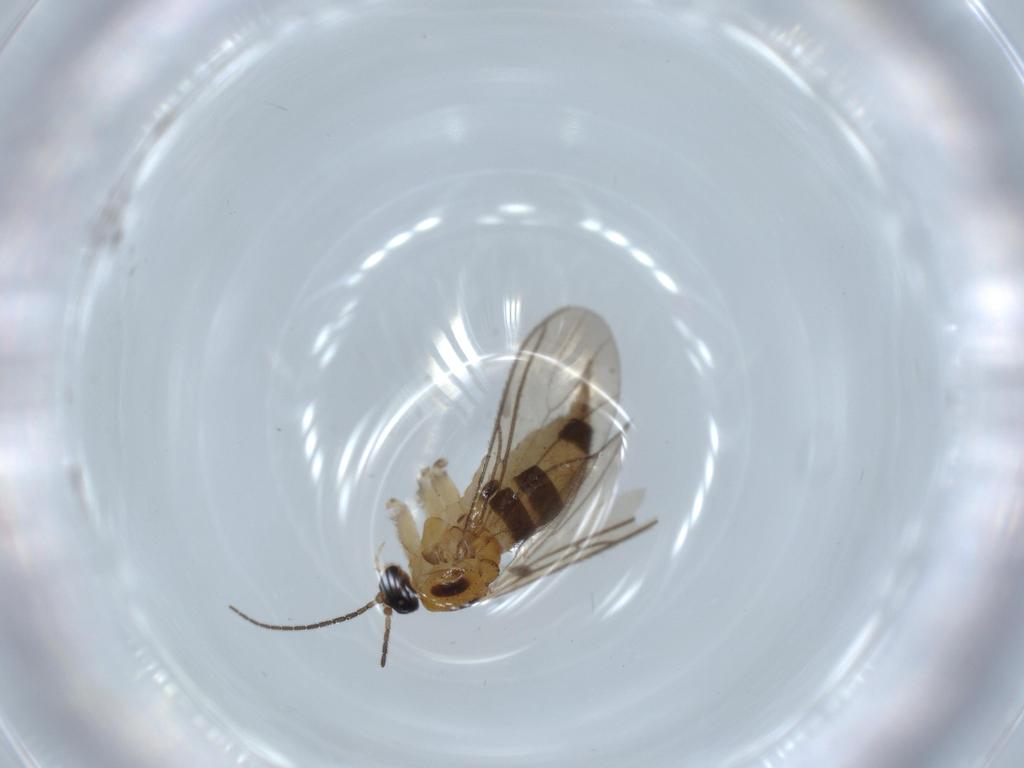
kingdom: Animalia
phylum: Arthropoda
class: Insecta
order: Diptera
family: Sciaridae
